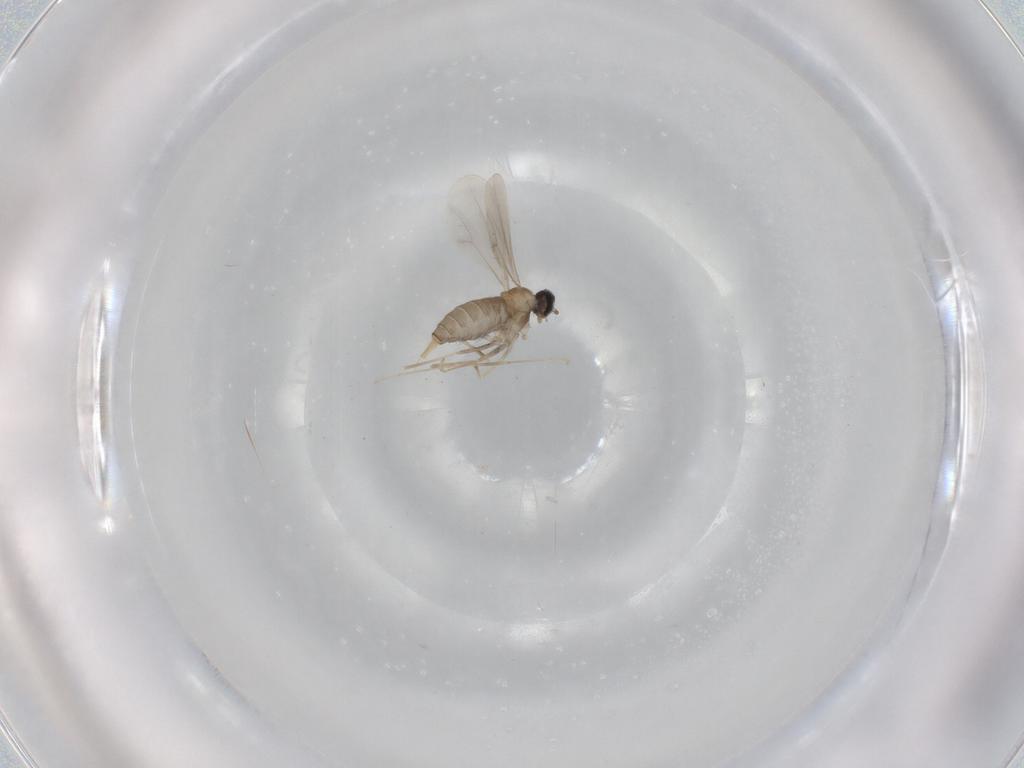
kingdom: Animalia
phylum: Arthropoda
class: Insecta
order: Diptera
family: Cecidomyiidae
